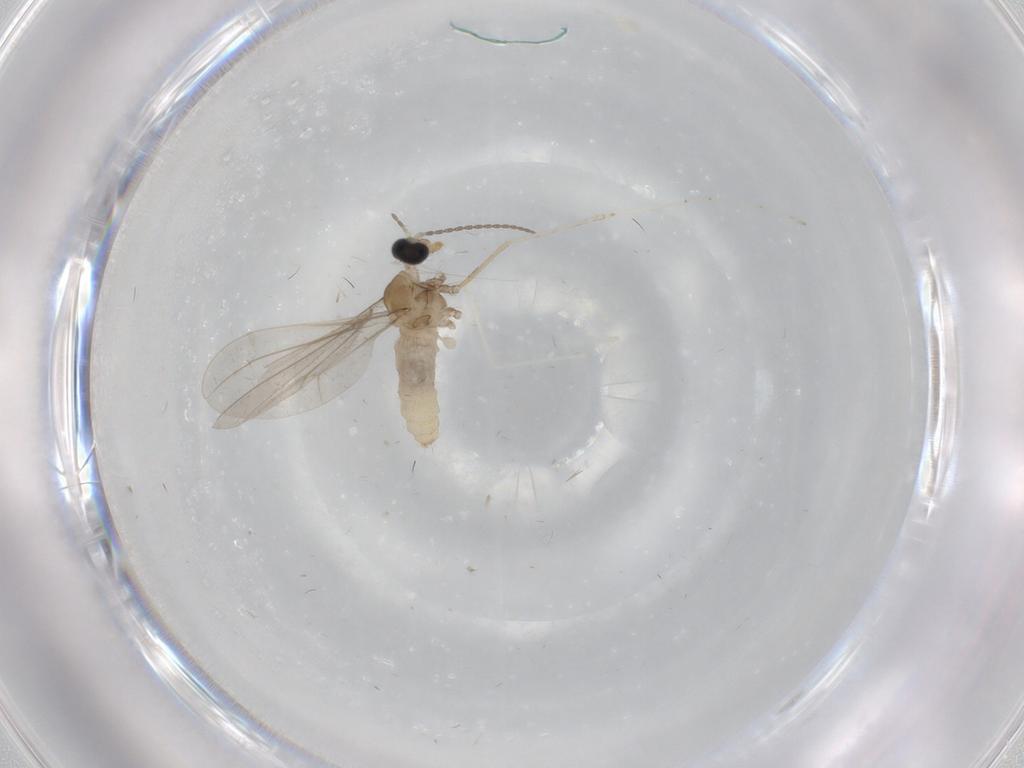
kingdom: Animalia
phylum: Arthropoda
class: Insecta
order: Diptera
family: Cecidomyiidae
